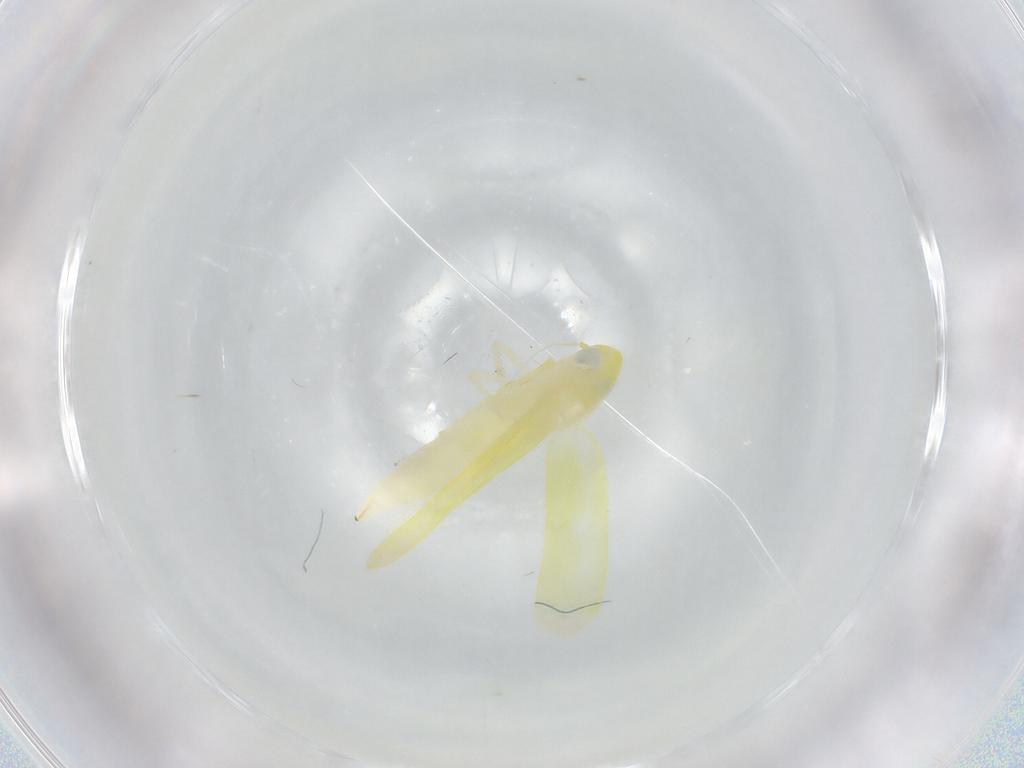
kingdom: Animalia
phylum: Arthropoda
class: Insecta
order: Hemiptera
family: Cicadellidae
